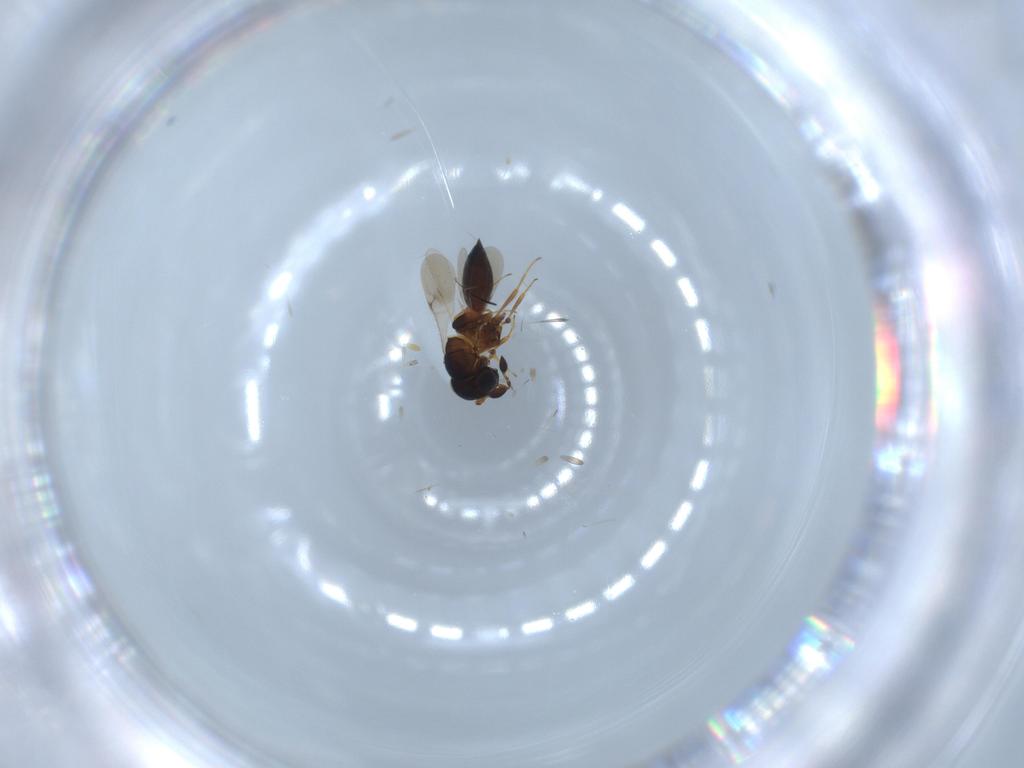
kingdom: Animalia
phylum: Arthropoda
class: Insecta
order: Hymenoptera
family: Scelionidae
